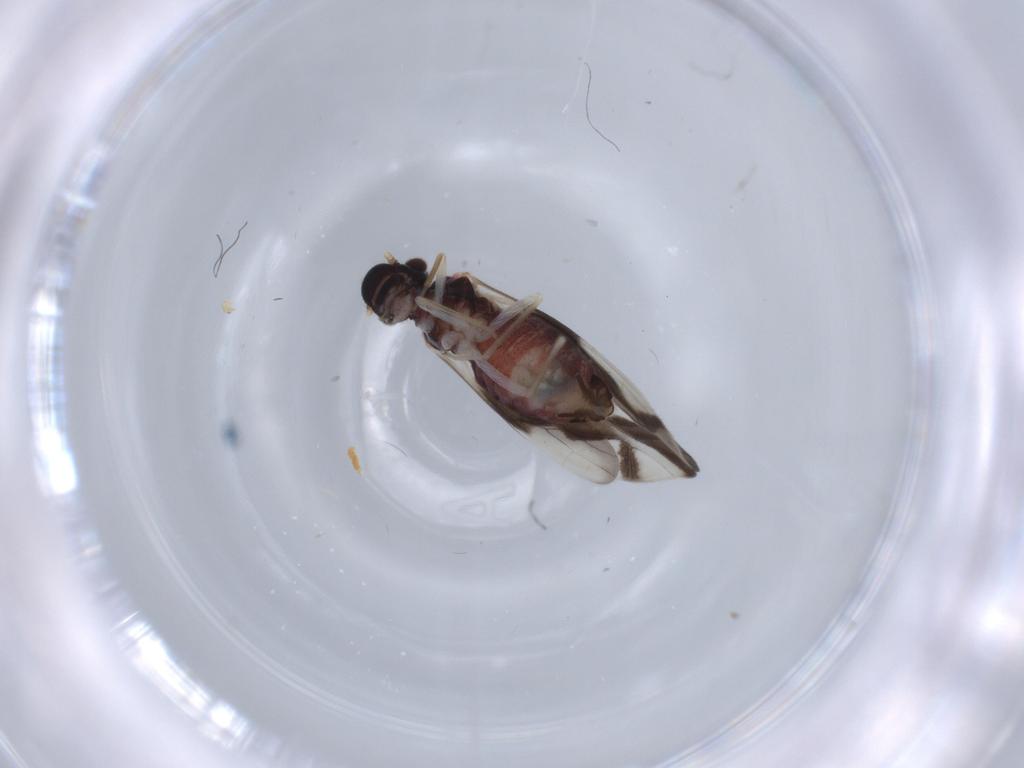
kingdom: Animalia
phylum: Arthropoda
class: Insecta
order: Psocodea
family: Caeciliusidae
